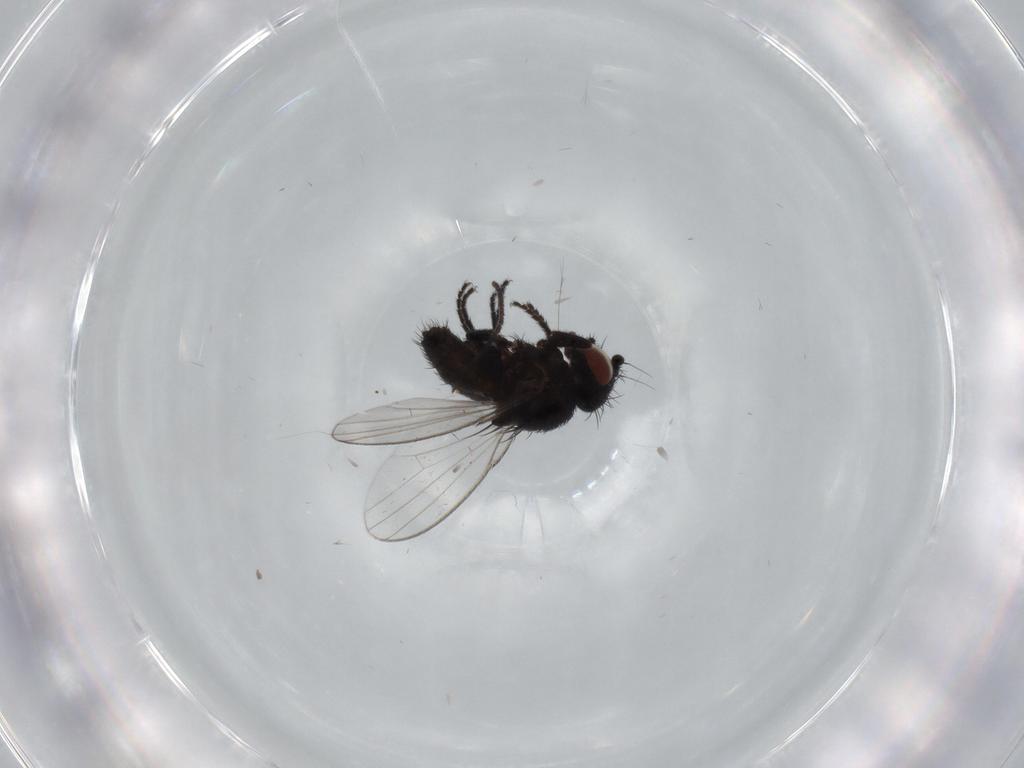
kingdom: Animalia
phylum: Arthropoda
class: Insecta
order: Diptera
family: Sciaridae
